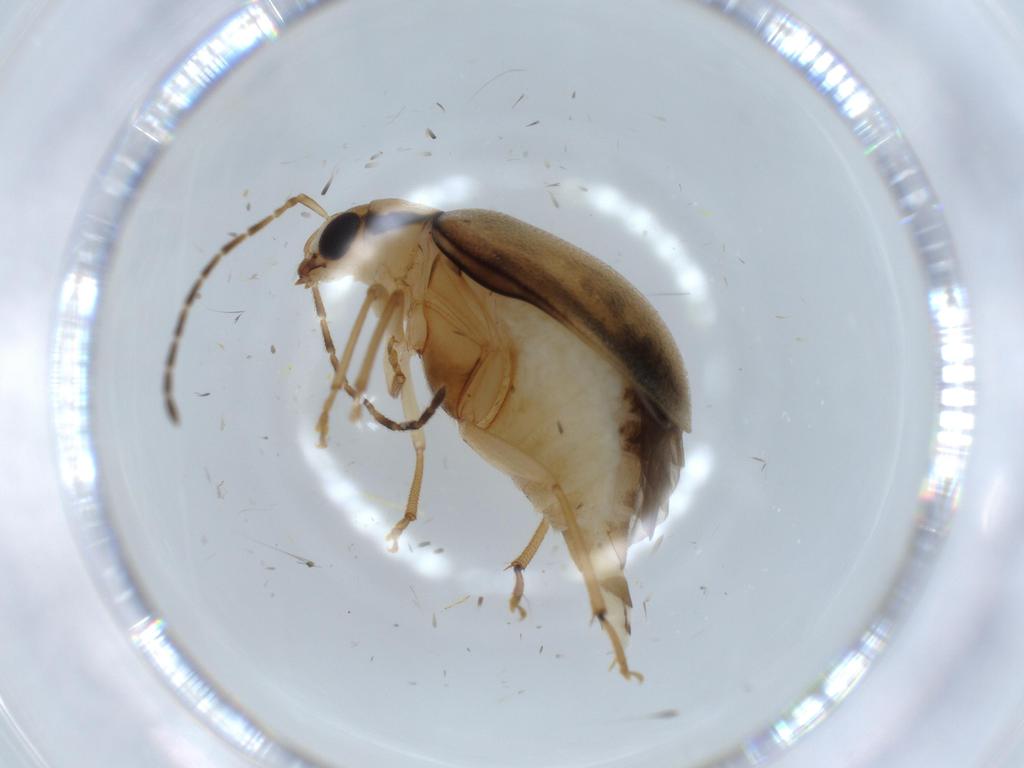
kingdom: Animalia
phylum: Arthropoda
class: Insecta
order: Coleoptera
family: Chrysomelidae
